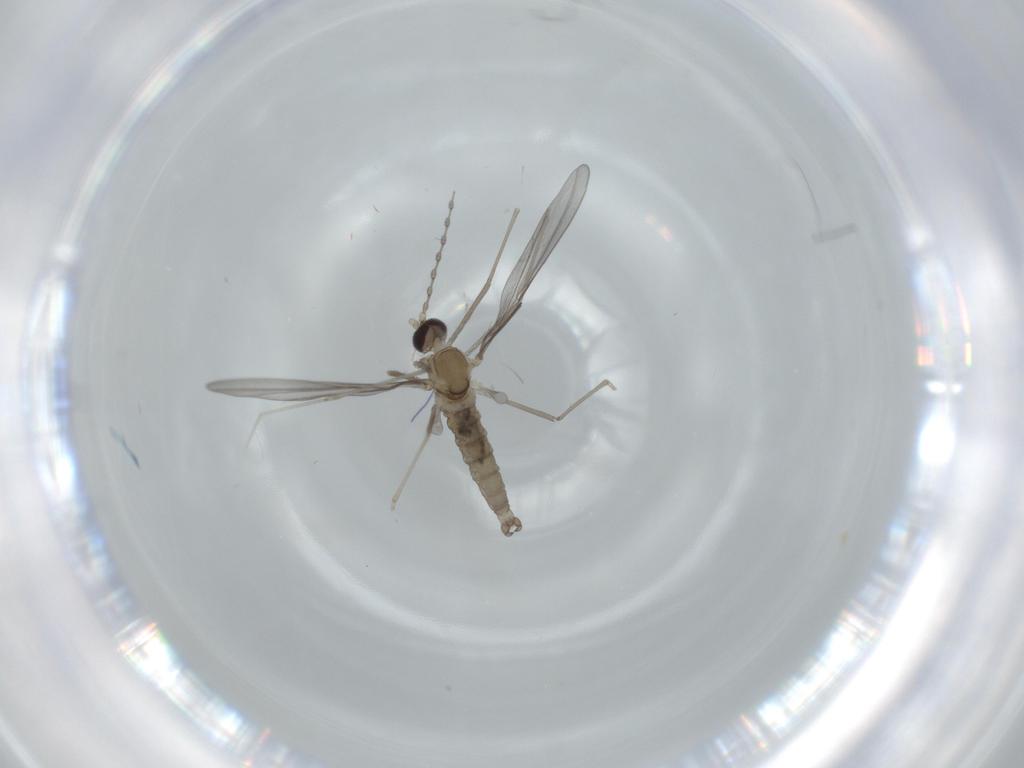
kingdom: Animalia
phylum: Arthropoda
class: Insecta
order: Diptera
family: Cecidomyiidae
